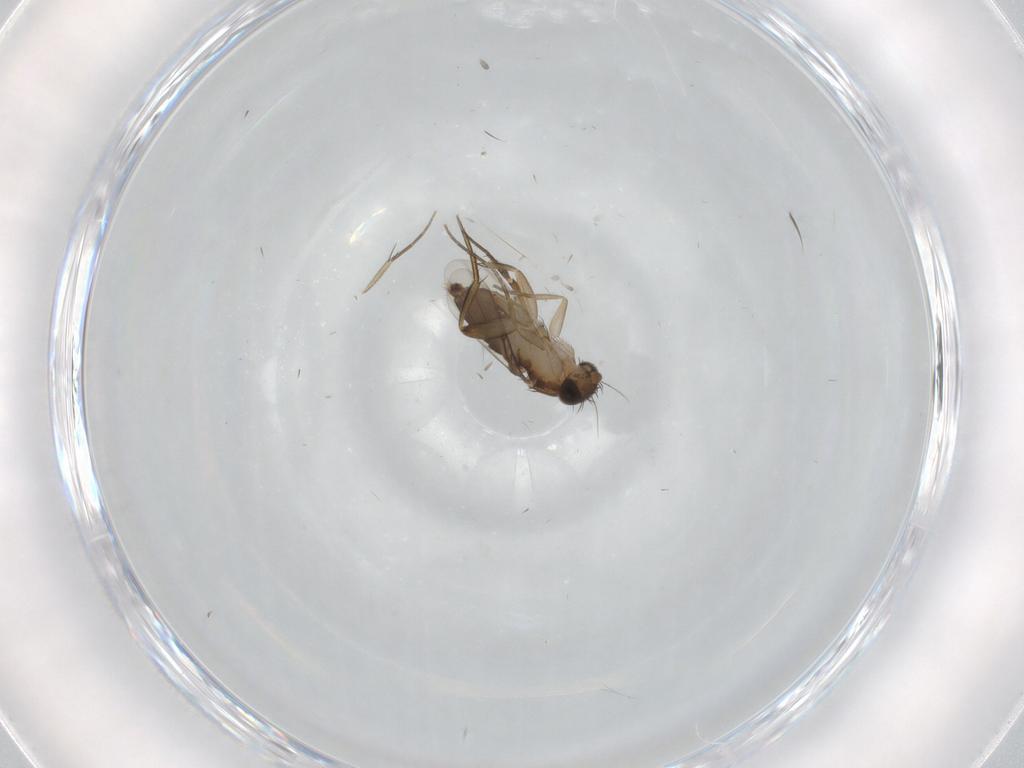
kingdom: Animalia
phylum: Arthropoda
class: Insecta
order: Diptera
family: Phoridae
